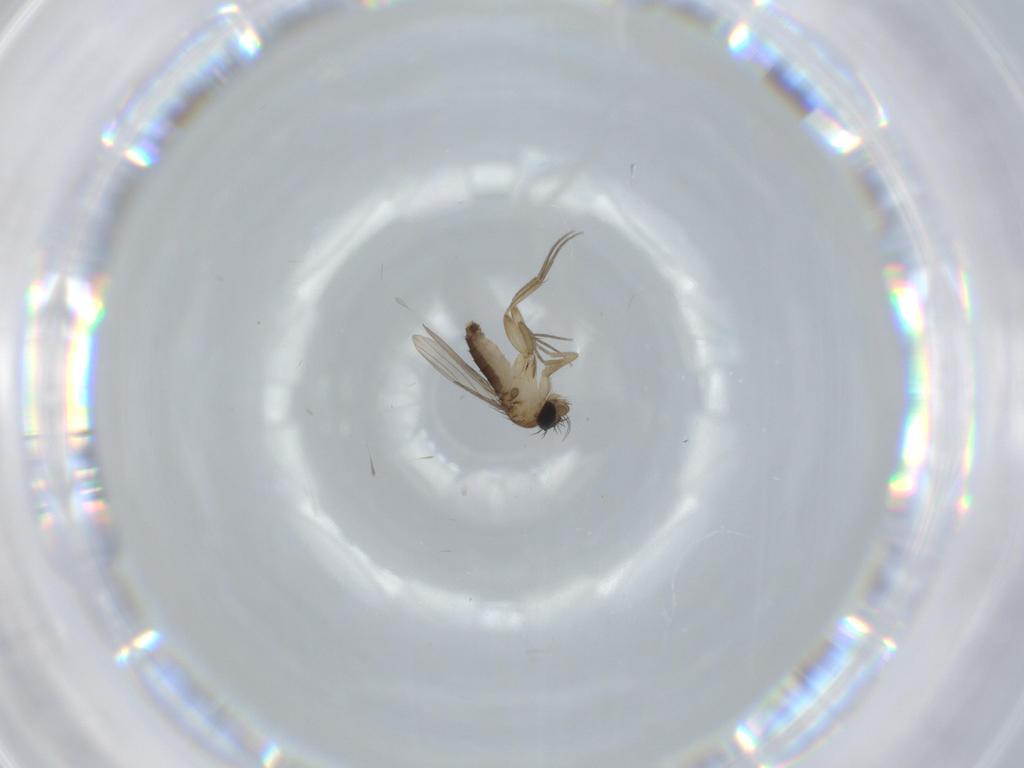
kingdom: Animalia
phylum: Arthropoda
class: Insecta
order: Diptera
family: Phoridae
